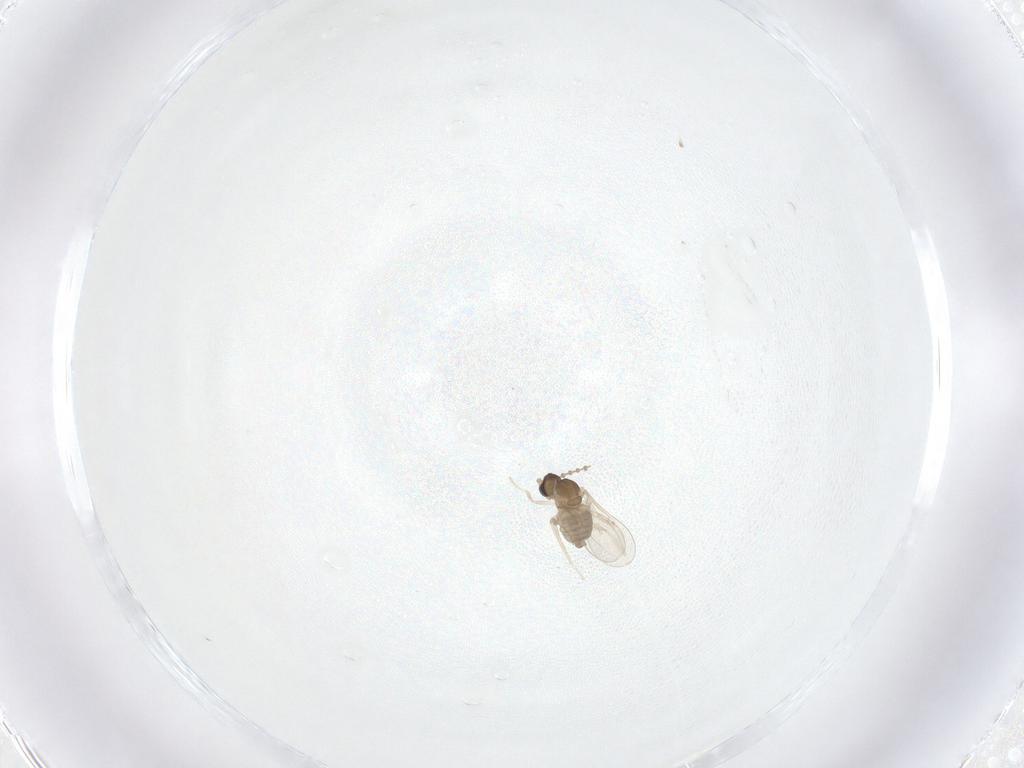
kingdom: Animalia
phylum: Arthropoda
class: Insecta
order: Diptera
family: Cecidomyiidae
